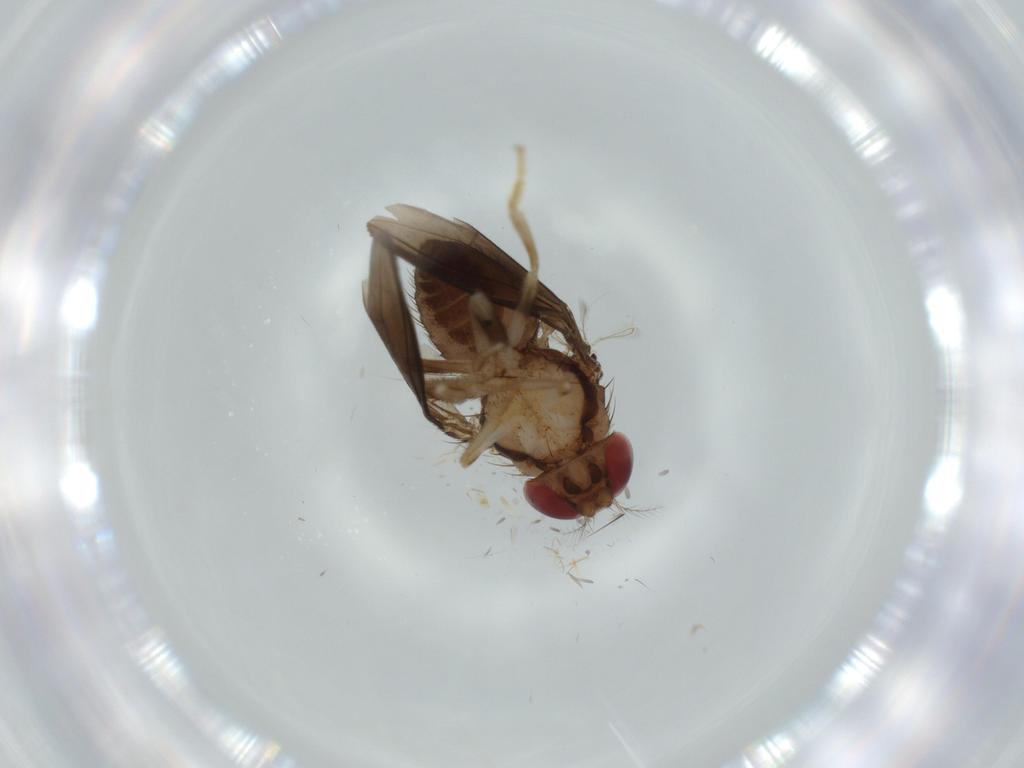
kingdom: Animalia
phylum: Arthropoda
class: Insecta
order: Diptera
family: Drosophilidae
